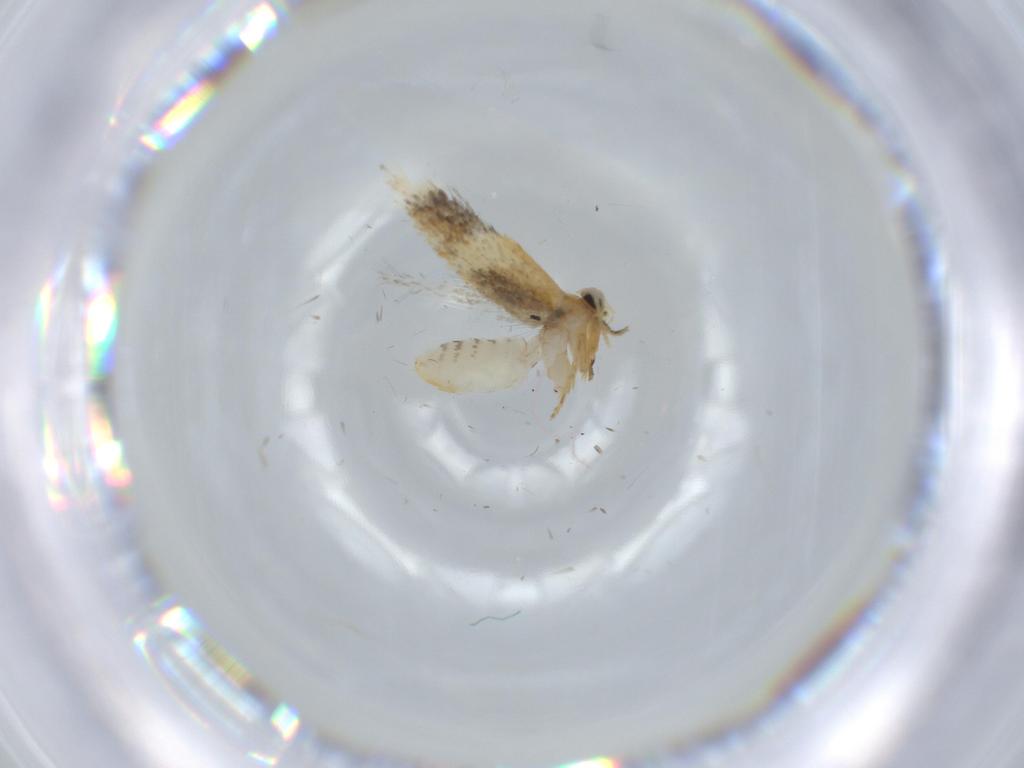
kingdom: Animalia
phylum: Arthropoda
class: Insecta
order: Lepidoptera
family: Nepticulidae
